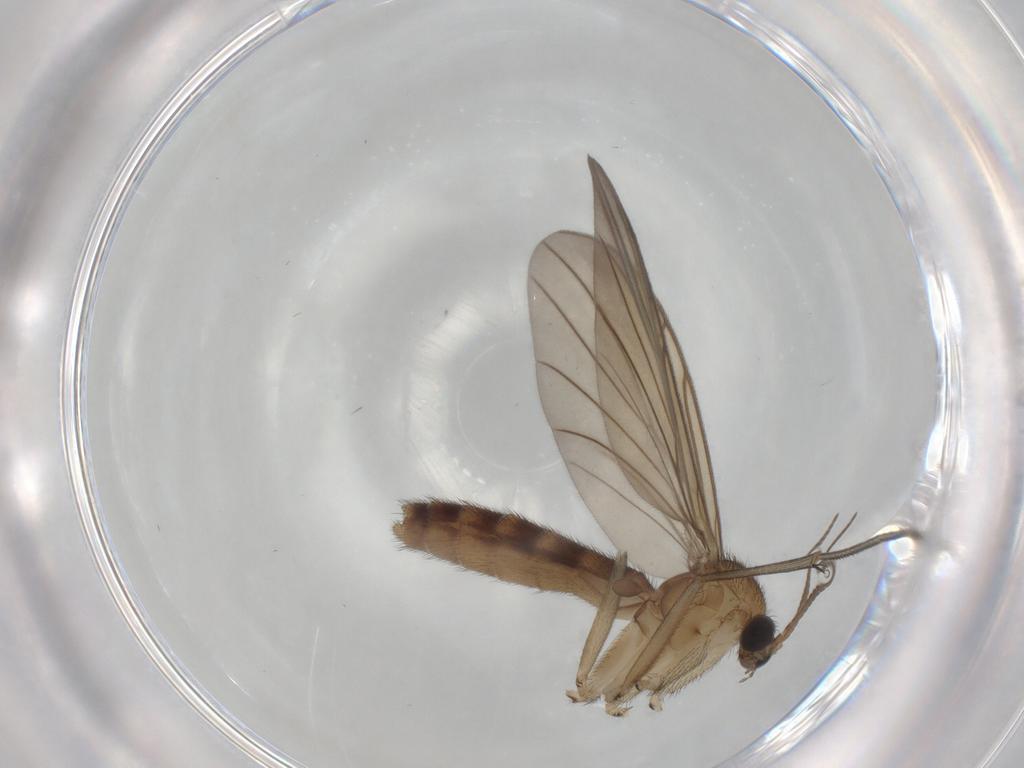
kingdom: Animalia
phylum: Arthropoda
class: Insecta
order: Diptera
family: Keroplatidae
